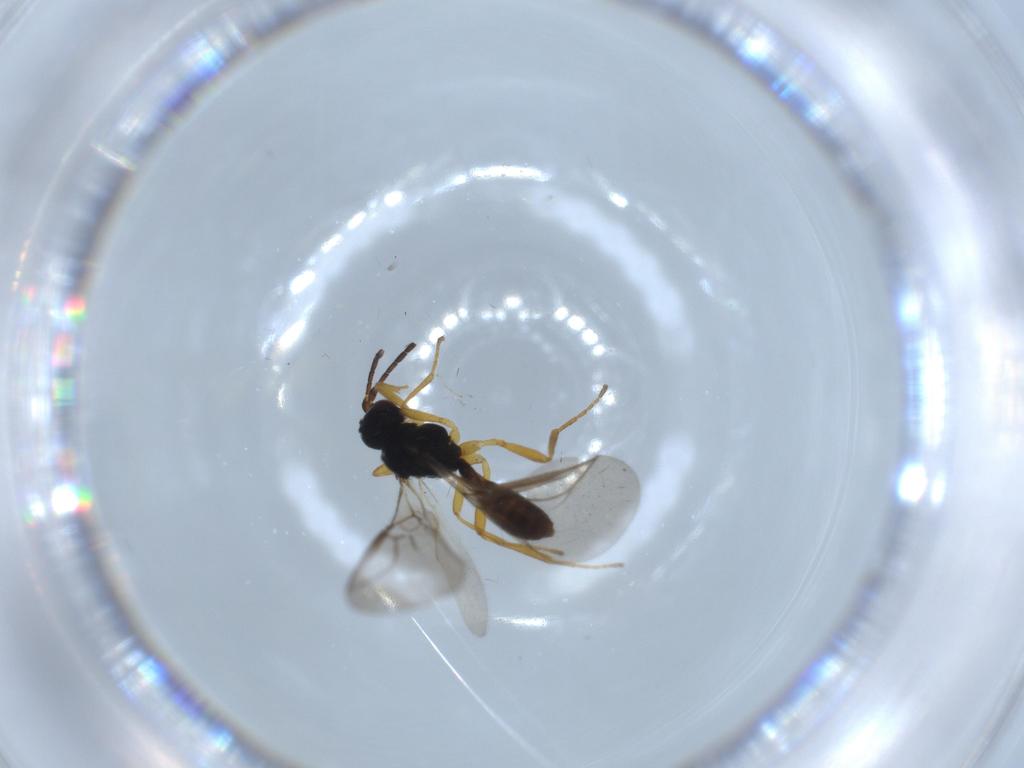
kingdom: Animalia
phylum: Arthropoda
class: Insecta
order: Hymenoptera
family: Braconidae
